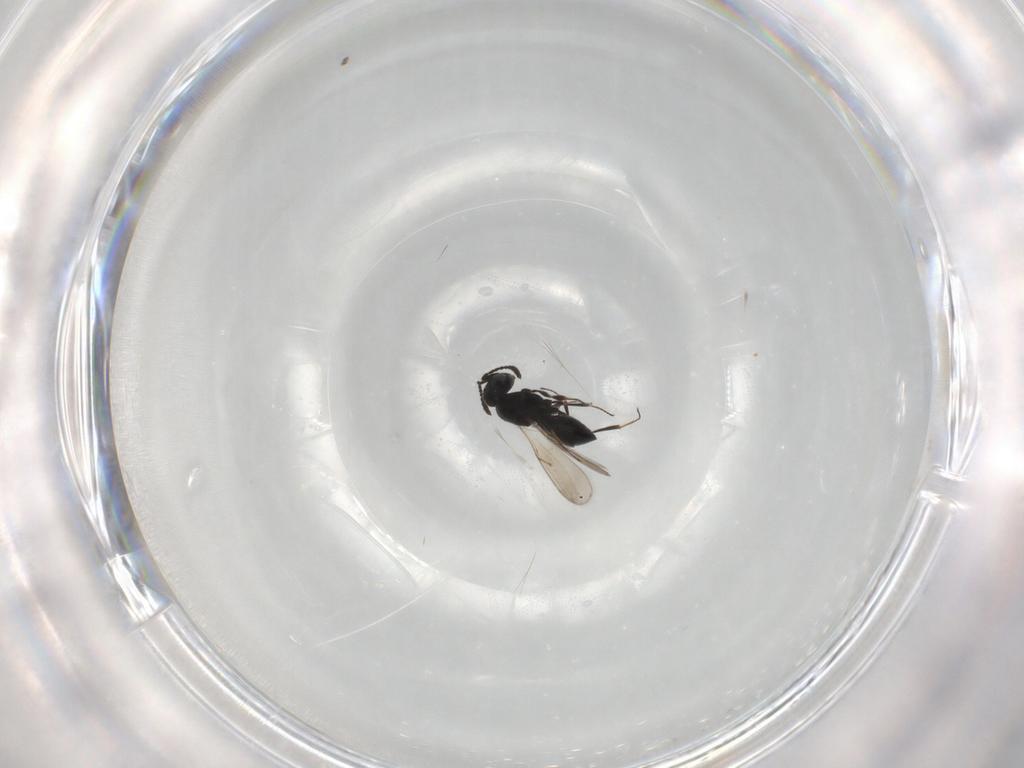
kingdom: Animalia
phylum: Arthropoda
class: Insecta
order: Hymenoptera
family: Scelionidae
